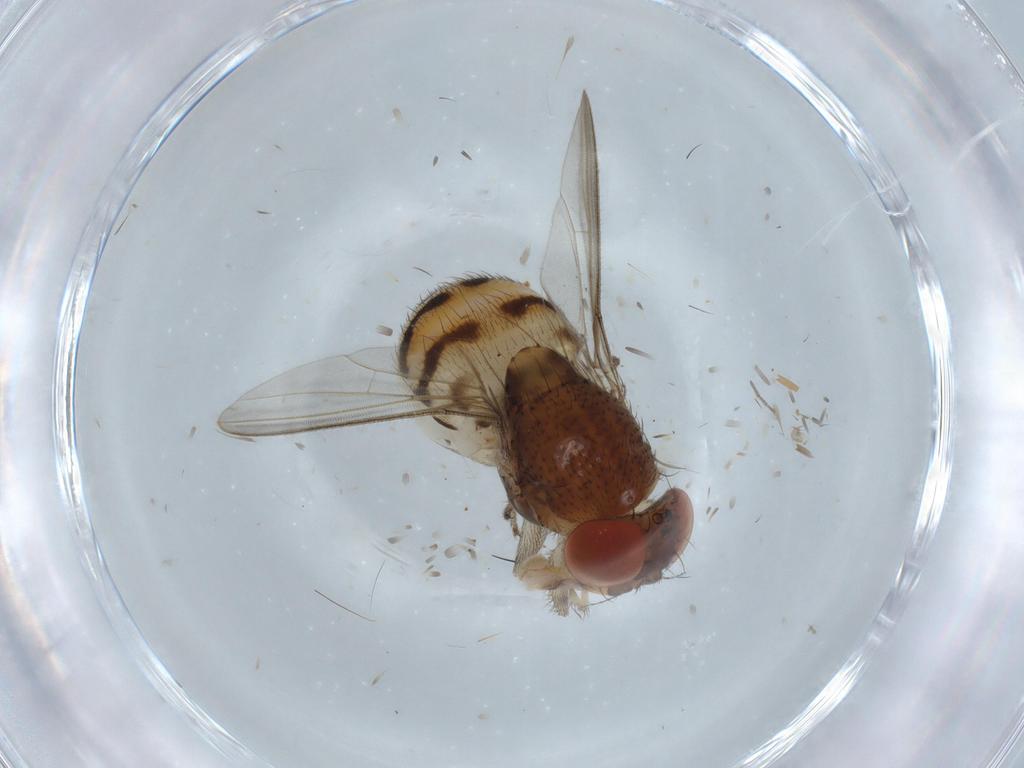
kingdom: Animalia
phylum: Arthropoda
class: Insecta
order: Diptera
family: Drosophilidae
